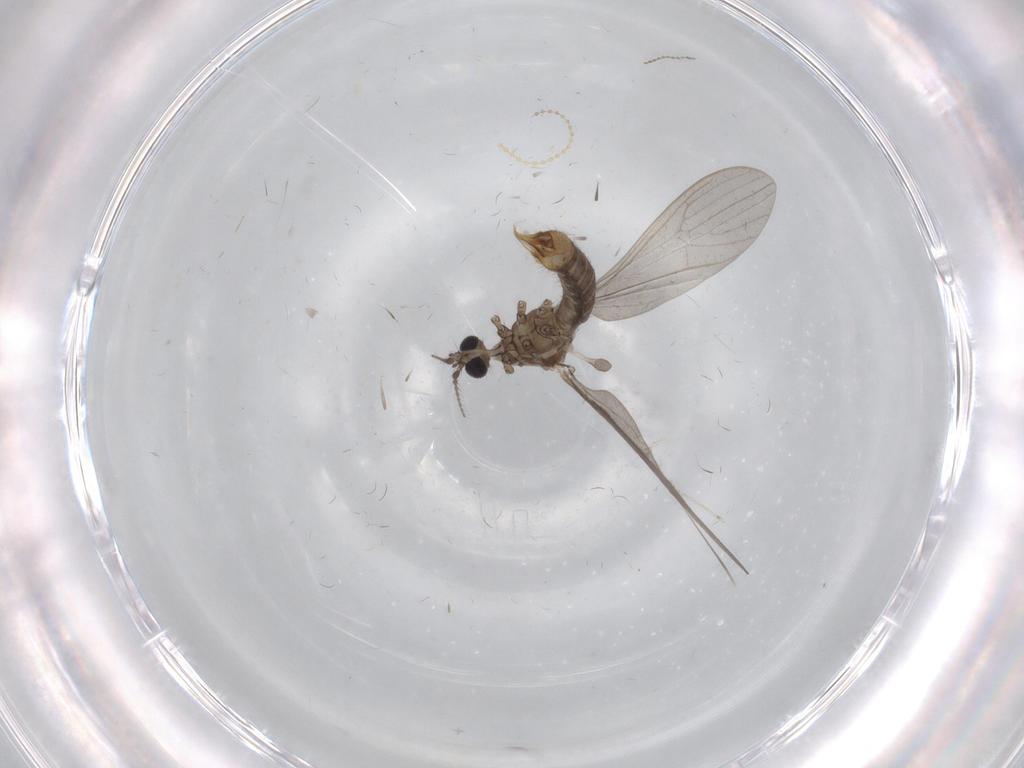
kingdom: Animalia
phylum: Arthropoda
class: Insecta
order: Diptera
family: Limoniidae
